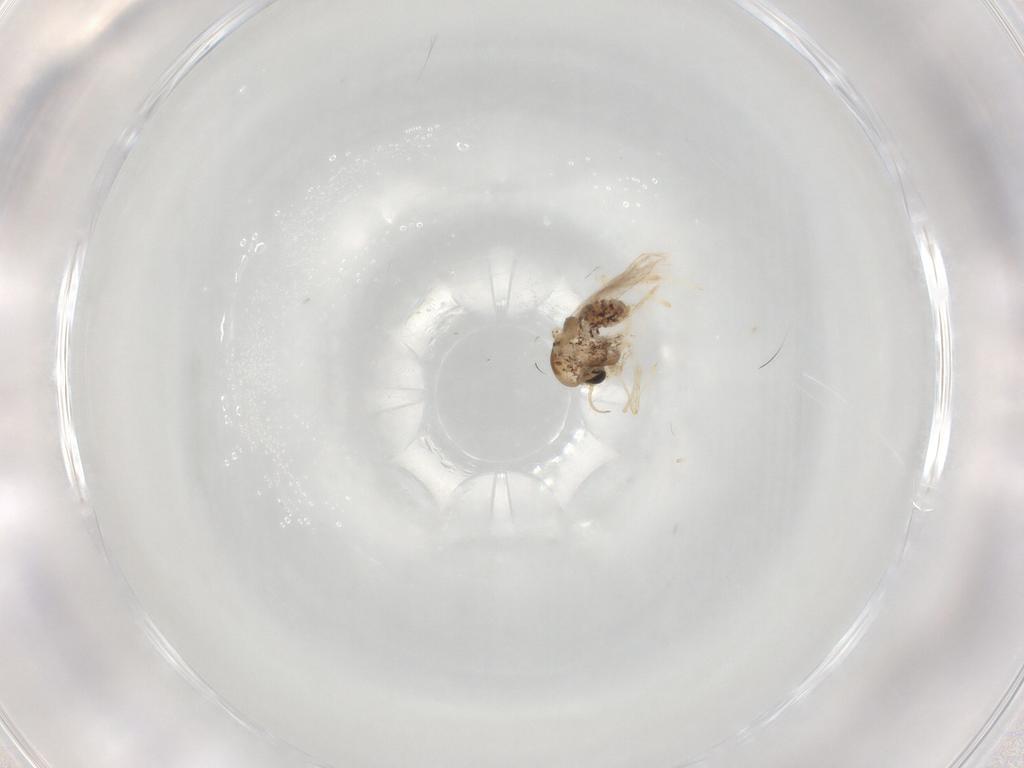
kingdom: Animalia
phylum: Arthropoda
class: Insecta
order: Diptera
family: Chironomidae
